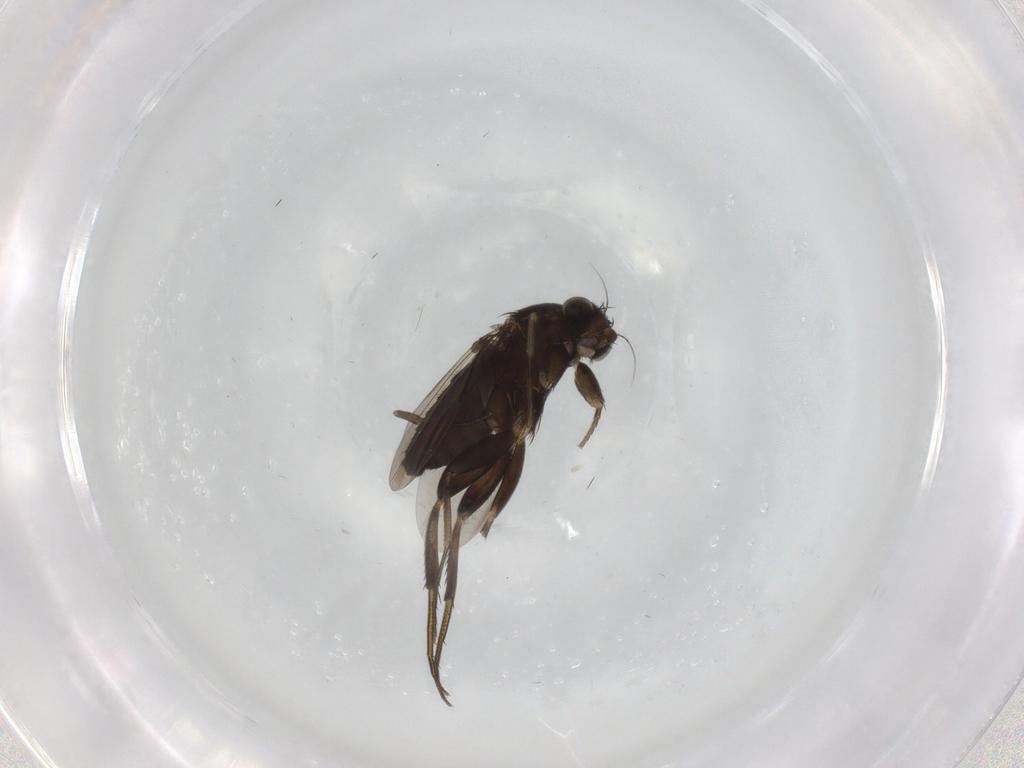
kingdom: Animalia
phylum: Arthropoda
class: Insecta
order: Diptera
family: Phoridae
